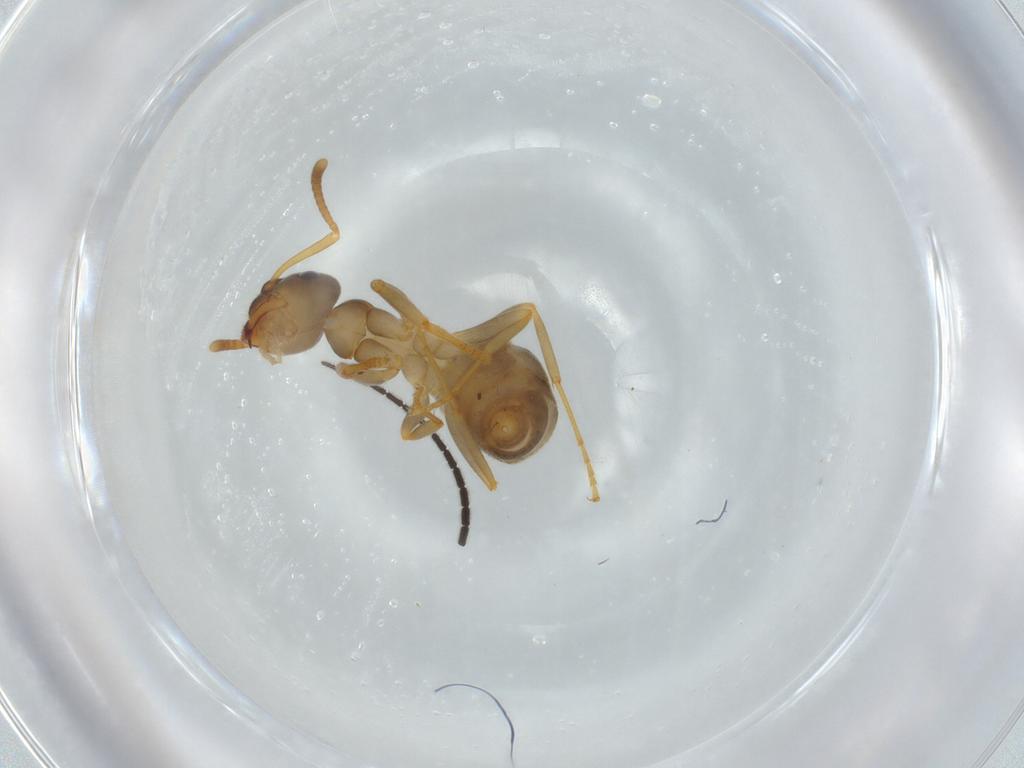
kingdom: Animalia
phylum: Arthropoda
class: Insecta
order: Hymenoptera
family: Formicidae
